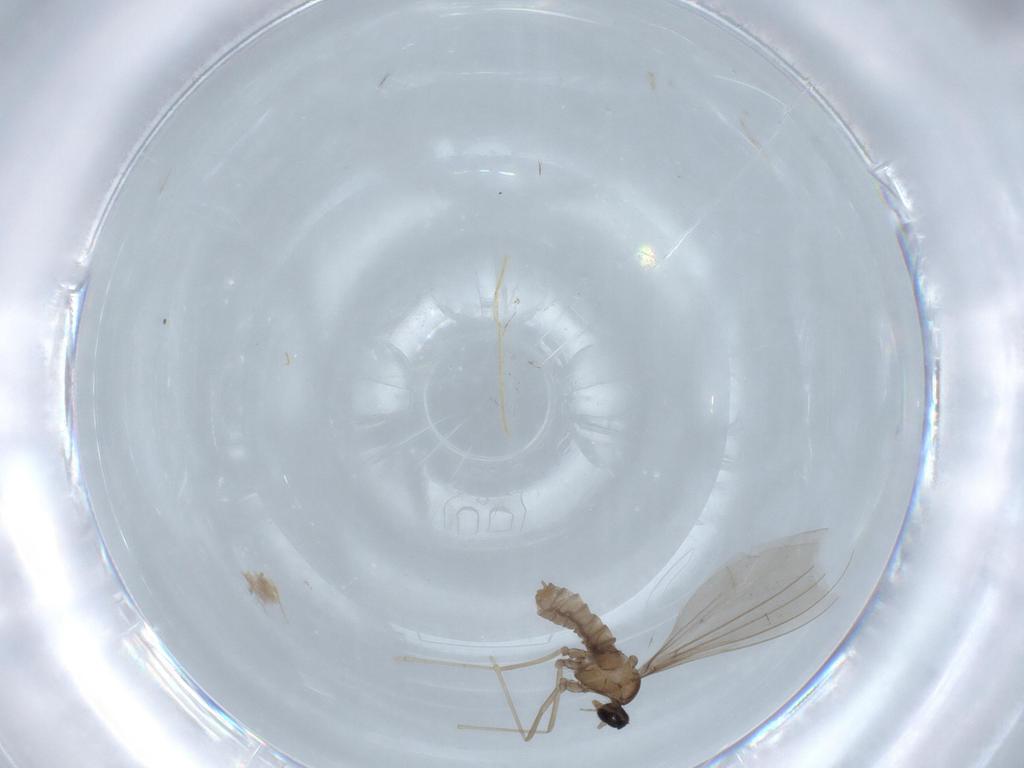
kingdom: Animalia
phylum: Arthropoda
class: Insecta
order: Diptera
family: Cecidomyiidae
